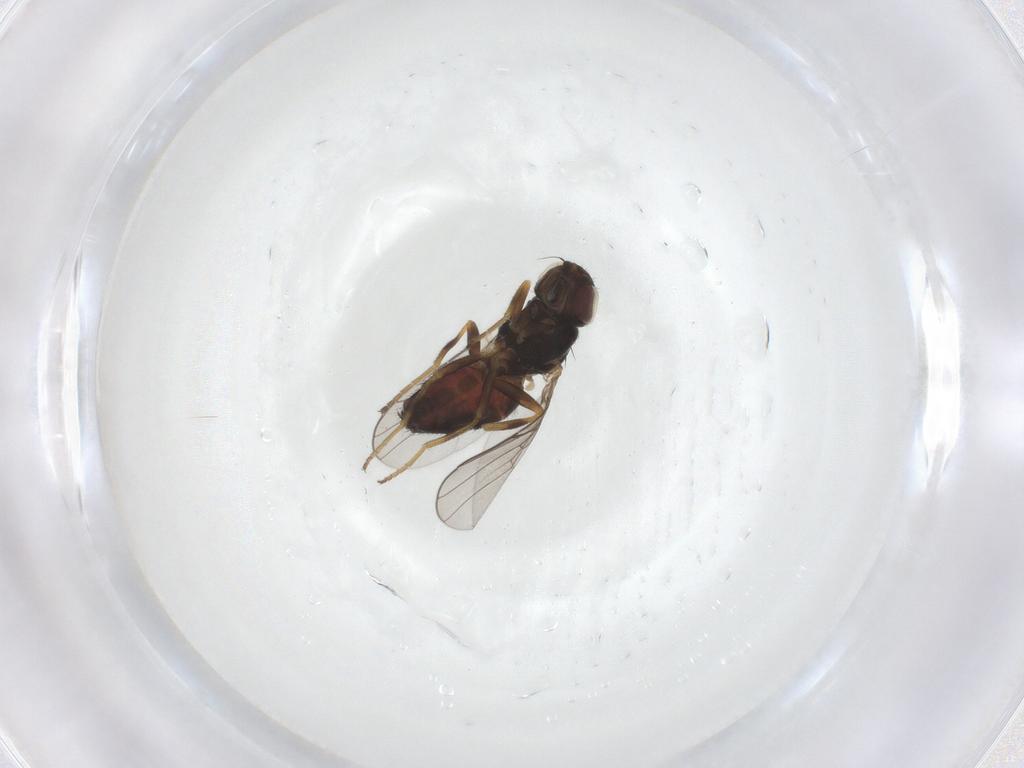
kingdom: Animalia
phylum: Arthropoda
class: Insecta
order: Diptera
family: Chloropidae
